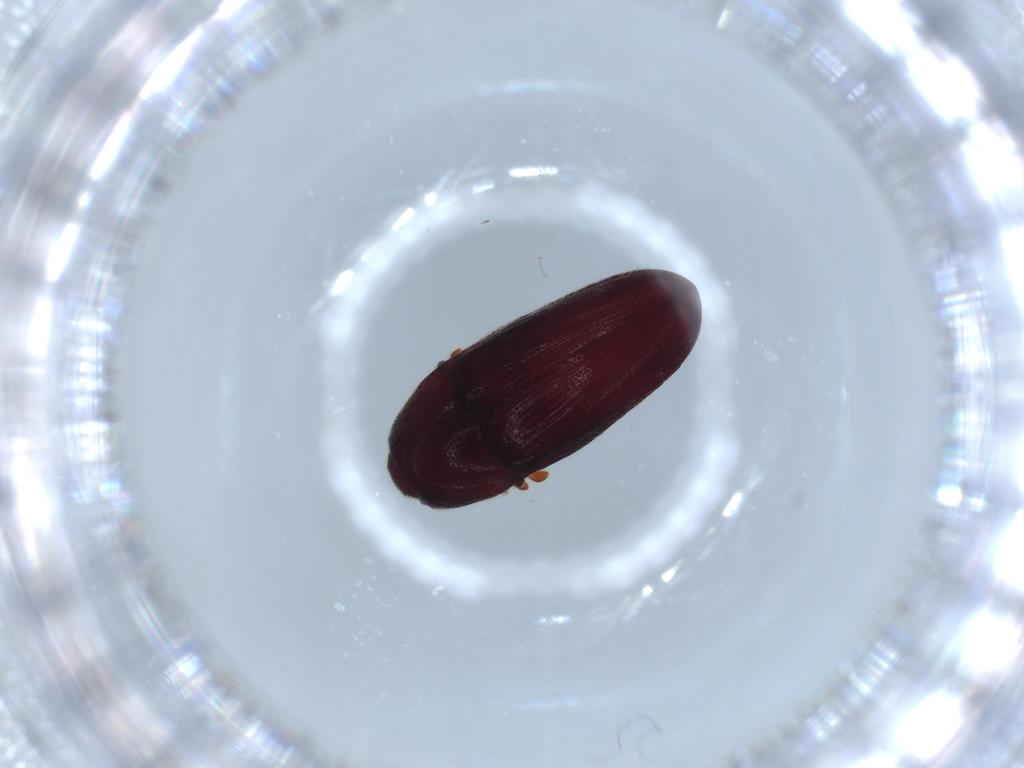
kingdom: Animalia
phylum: Arthropoda
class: Insecta
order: Coleoptera
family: Throscidae
